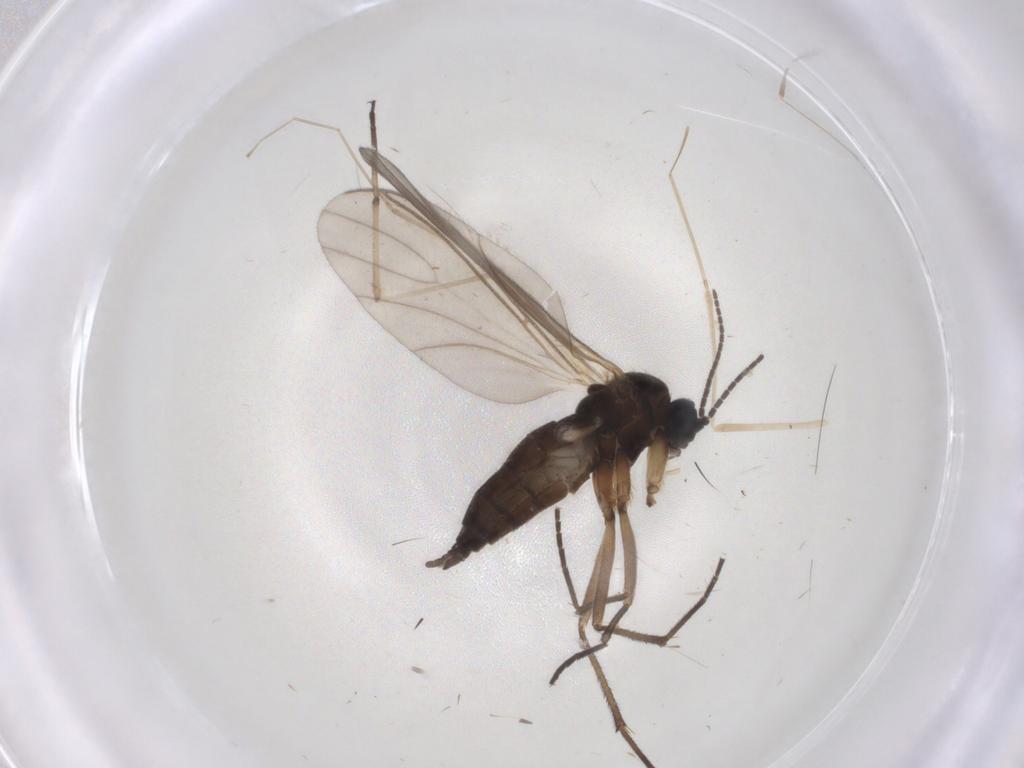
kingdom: Animalia
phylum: Arthropoda
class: Insecta
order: Diptera
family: Sciaridae
